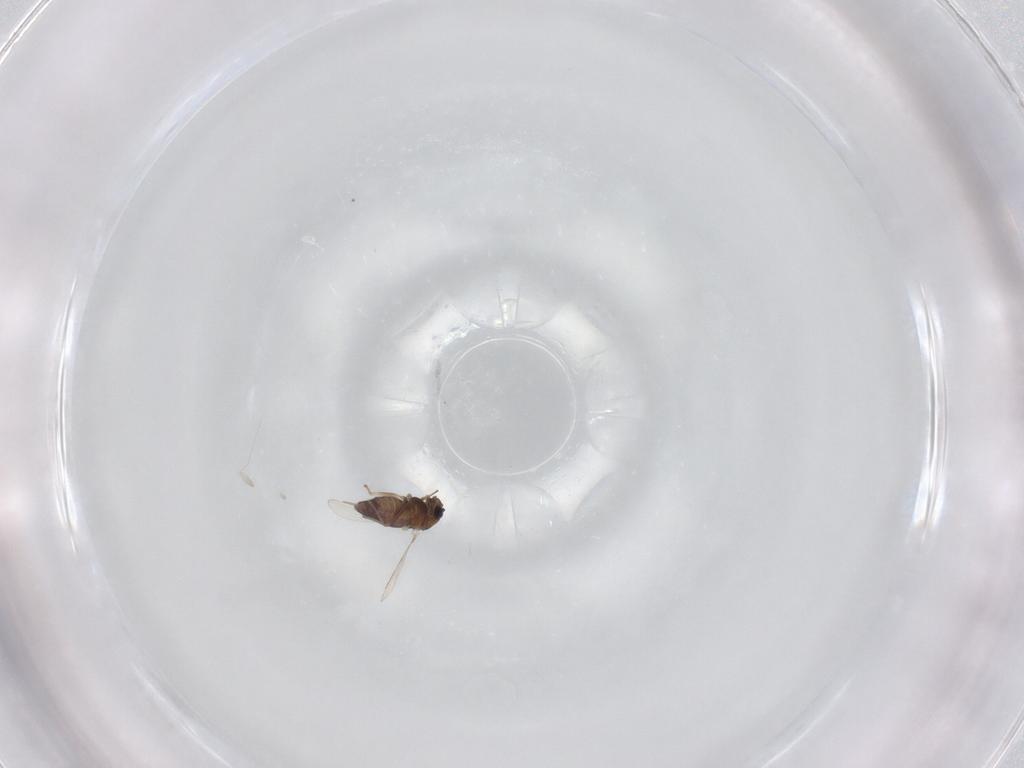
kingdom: Animalia
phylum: Arthropoda
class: Insecta
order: Diptera
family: Chironomidae
